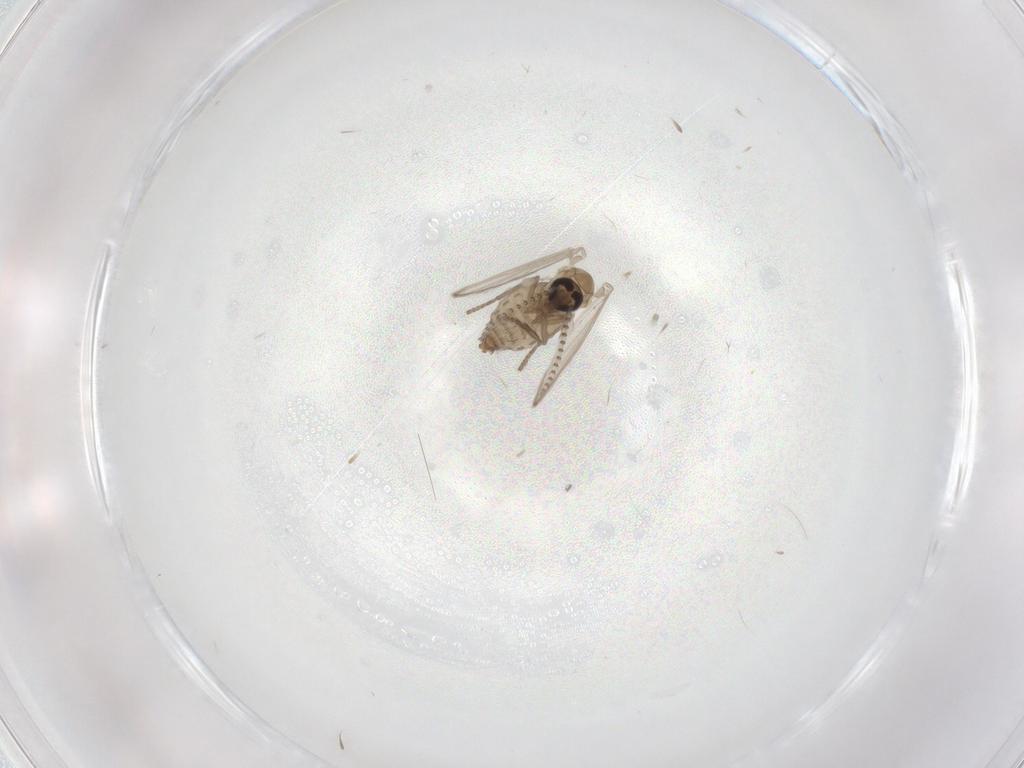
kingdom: Animalia
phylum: Arthropoda
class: Insecta
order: Diptera
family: Psychodidae
